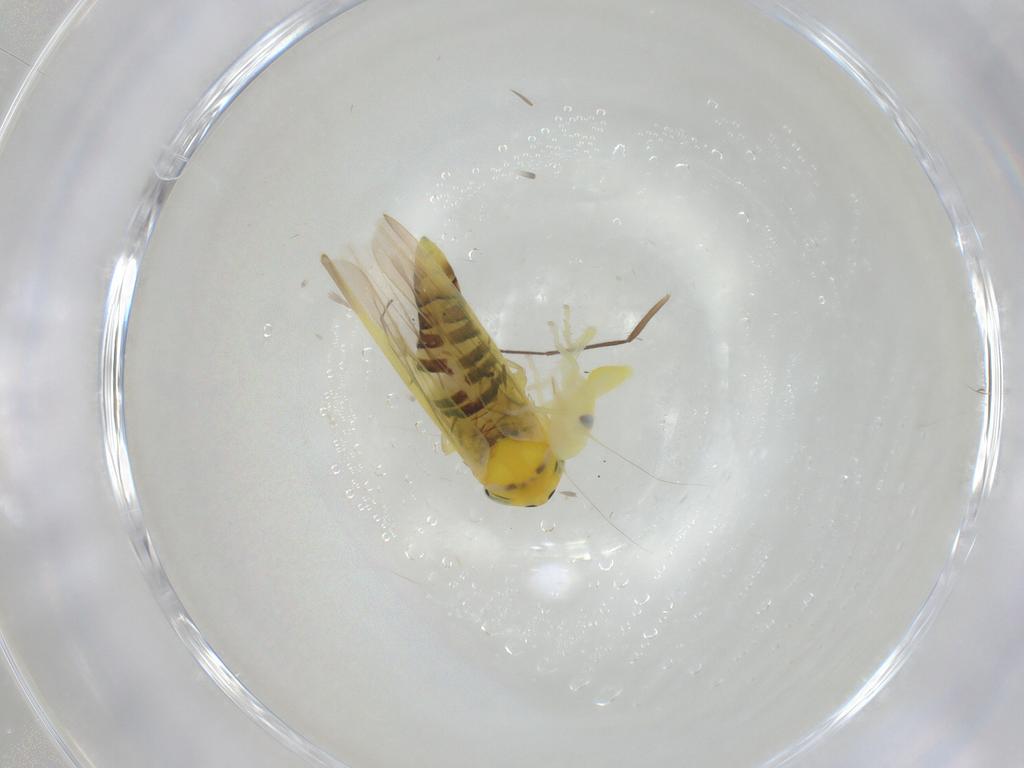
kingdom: Animalia
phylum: Arthropoda
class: Insecta
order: Hemiptera
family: Cicadellidae
